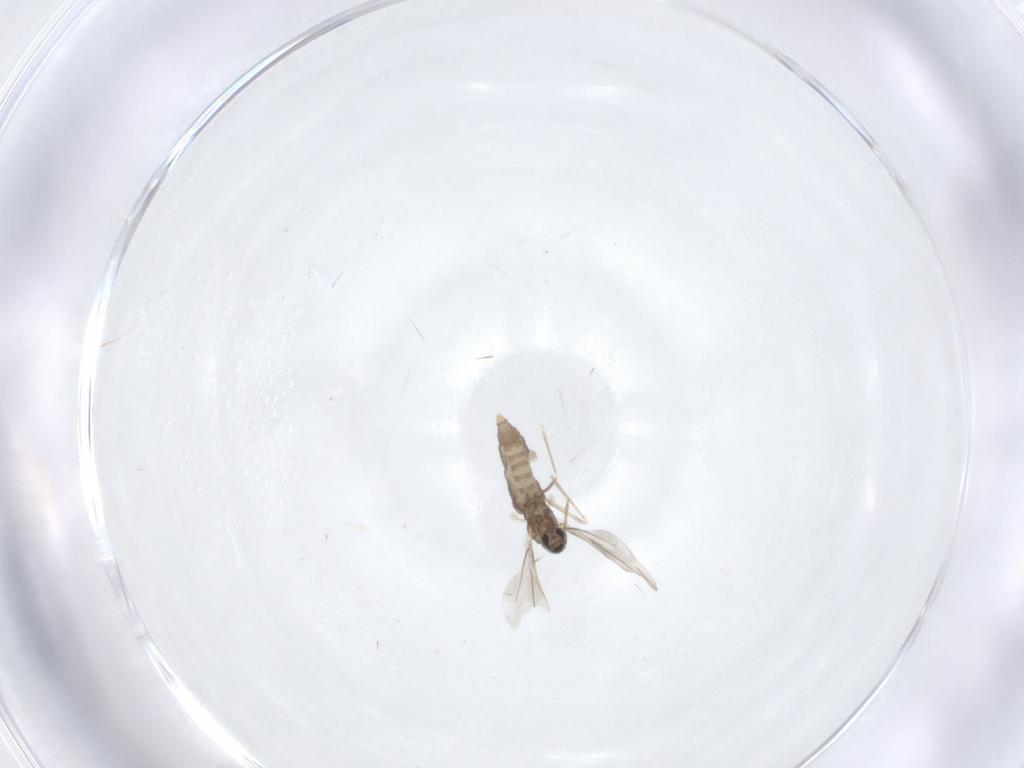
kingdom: Animalia
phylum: Arthropoda
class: Insecta
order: Diptera
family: Cecidomyiidae
